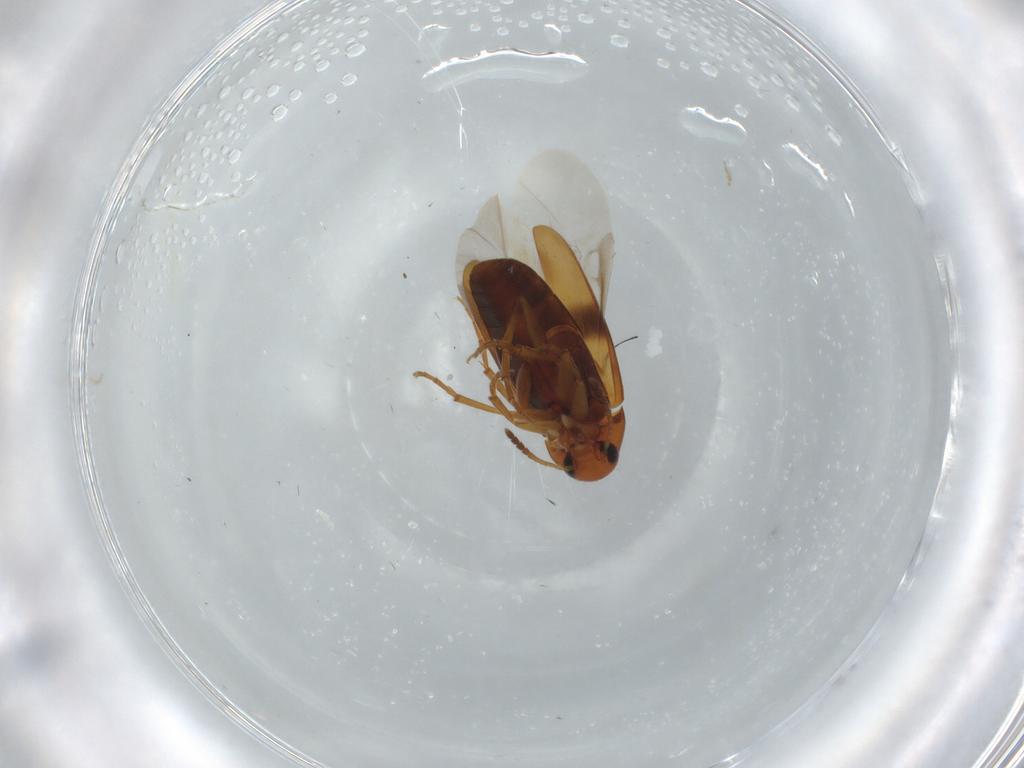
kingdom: Animalia
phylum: Arthropoda
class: Insecta
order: Coleoptera
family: Scraptiidae
